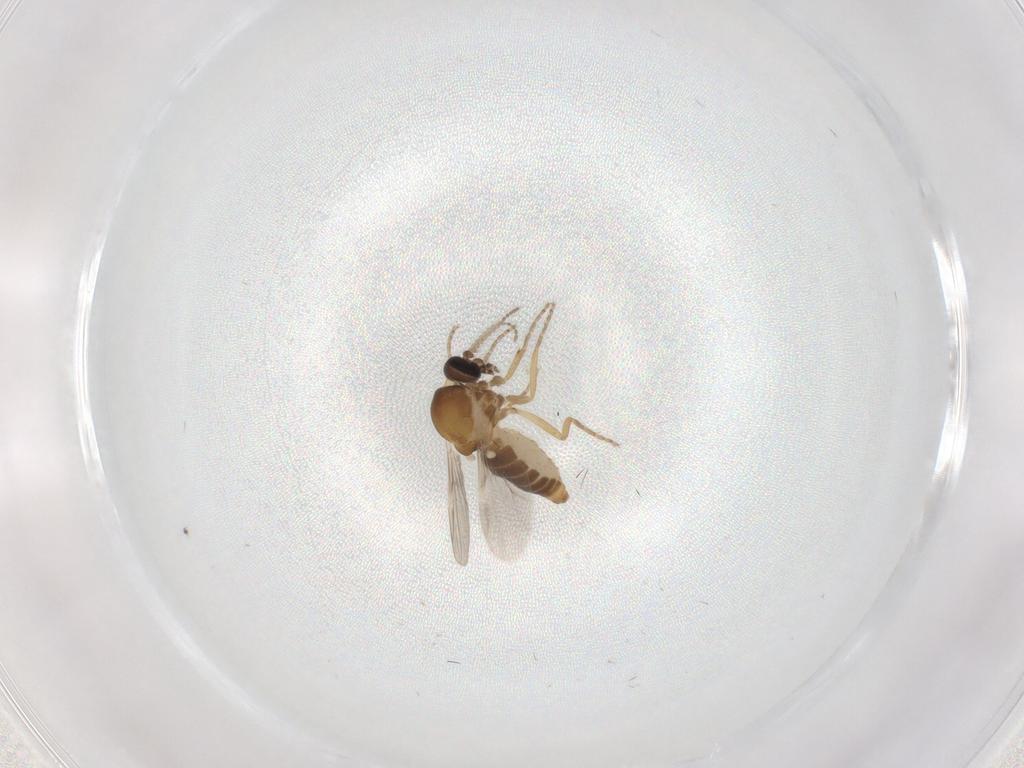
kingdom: Animalia
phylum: Arthropoda
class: Insecta
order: Diptera
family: Ceratopogonidae
